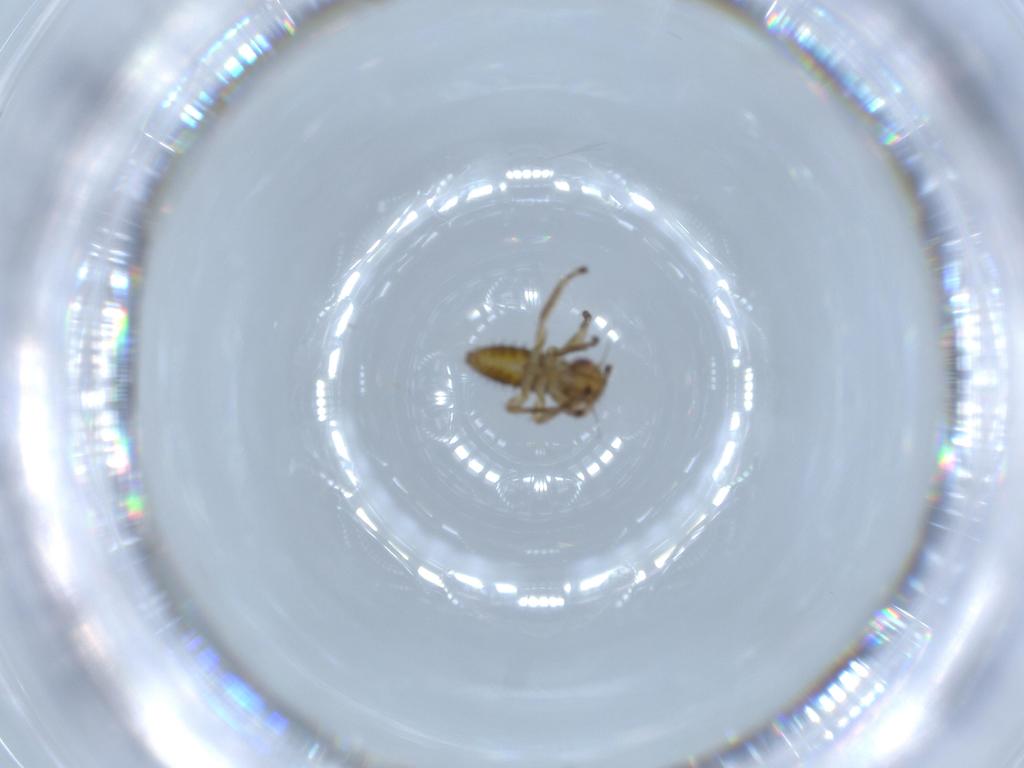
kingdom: Animalia
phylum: Arthropoda
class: Insecta
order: Hemiptera
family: Cicadellidae
